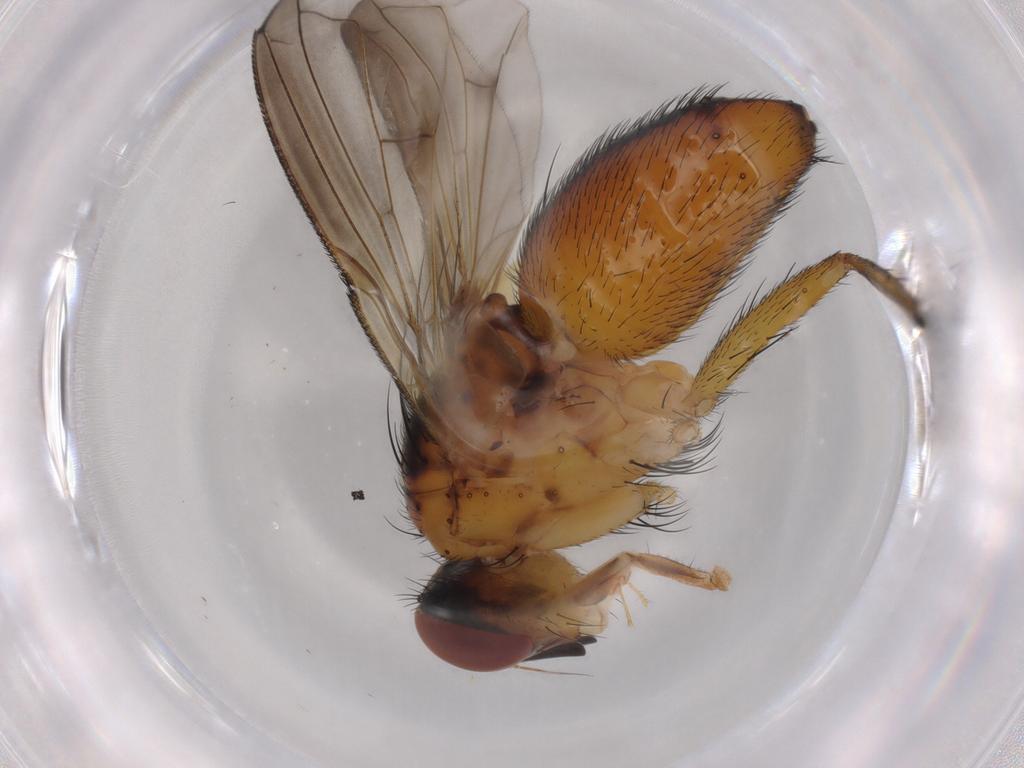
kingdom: Animalia
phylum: Arthropoda
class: Insecta
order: Diptera
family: Tachinidae
